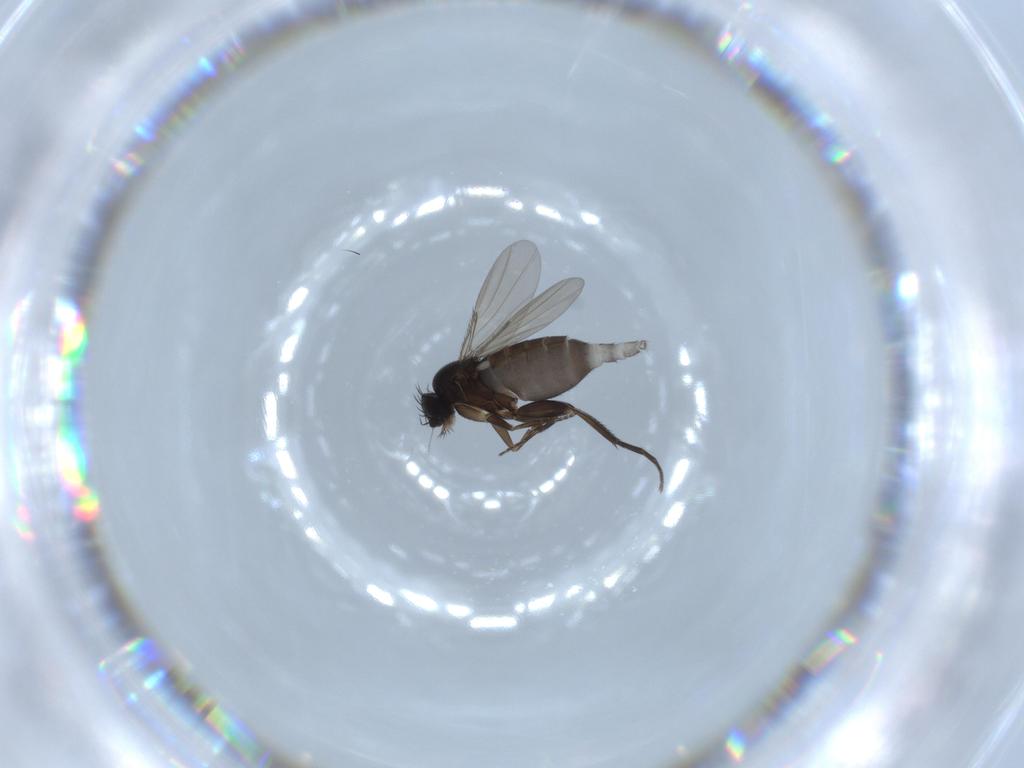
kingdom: Animalia
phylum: Arthropoda
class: Insecta
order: Diptera
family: Phoridae
